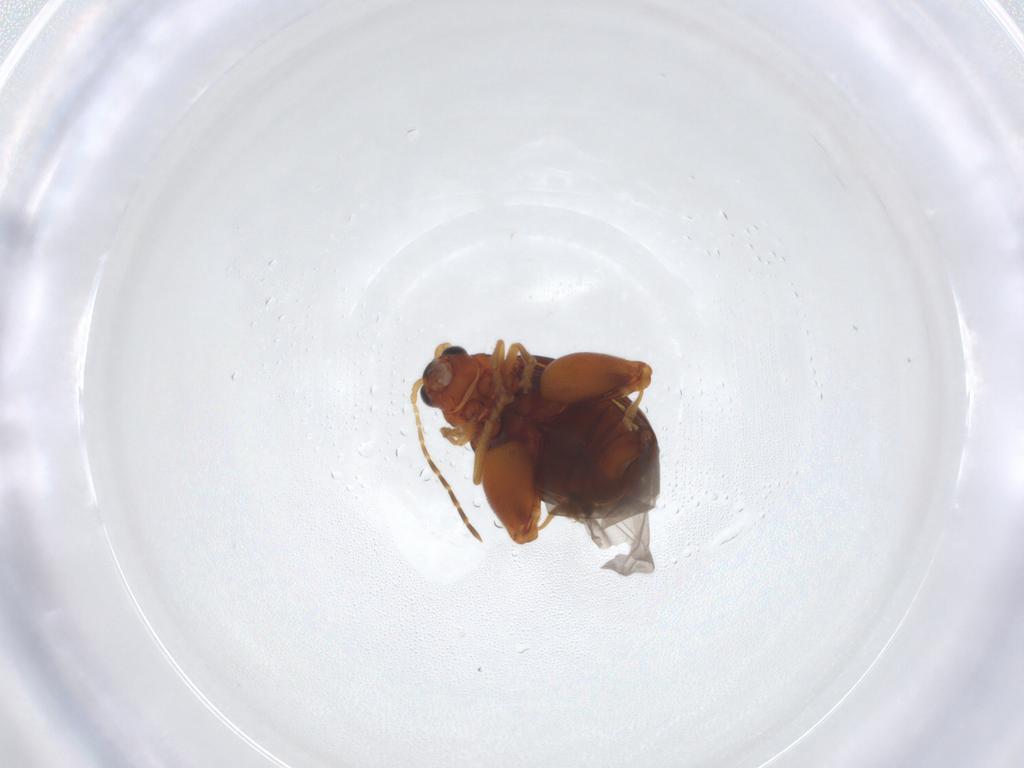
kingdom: Animalia
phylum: Arthropoda
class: Insecta
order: Coleoptera
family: Chrysomelidae
